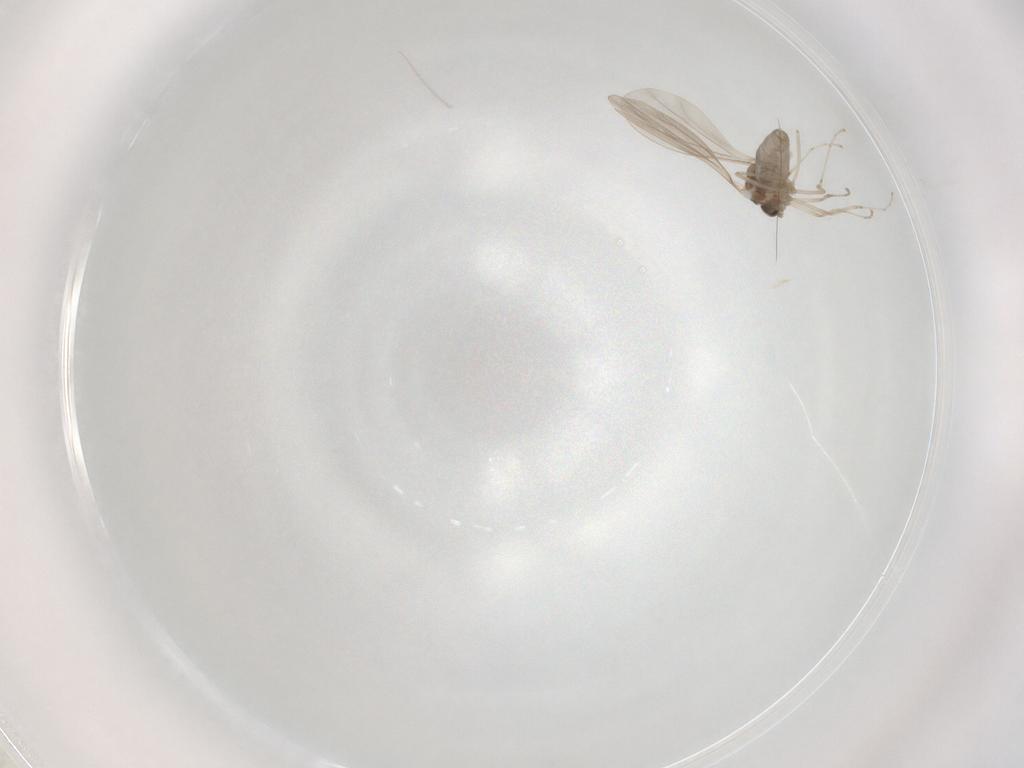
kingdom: Animalia
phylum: Arthropoda
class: Insecta
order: Diptera
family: Cecidomyiidae
